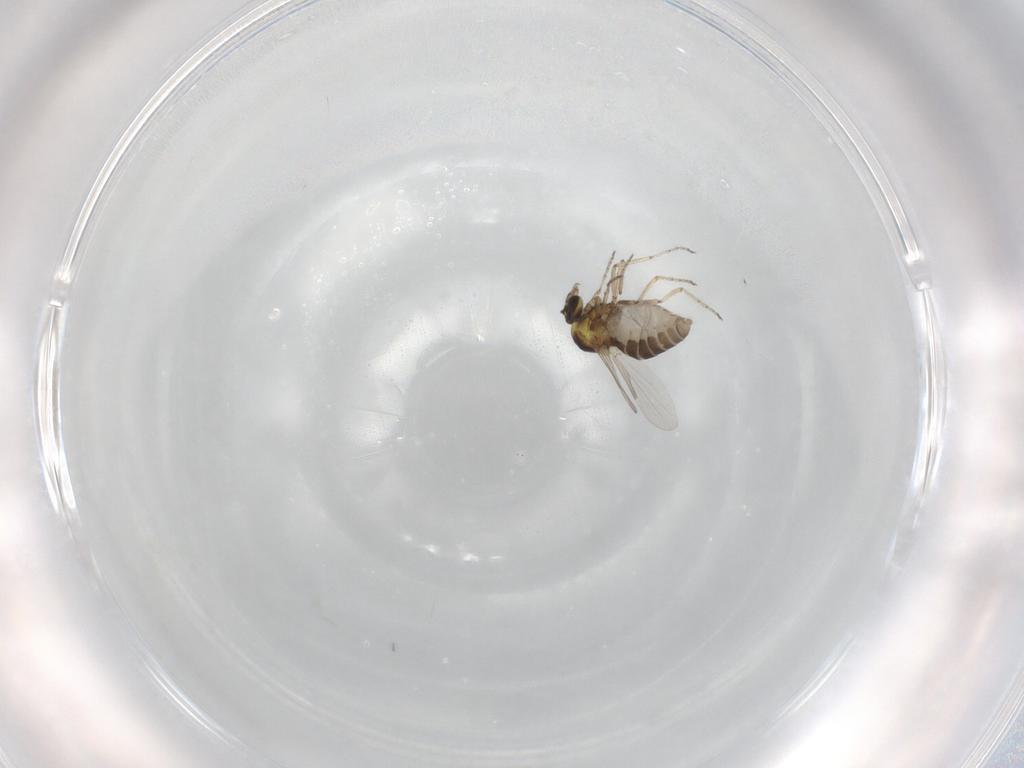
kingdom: Animalia
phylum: Arthropoda
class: Insecta
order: Diptera
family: Ceratopogonidae
